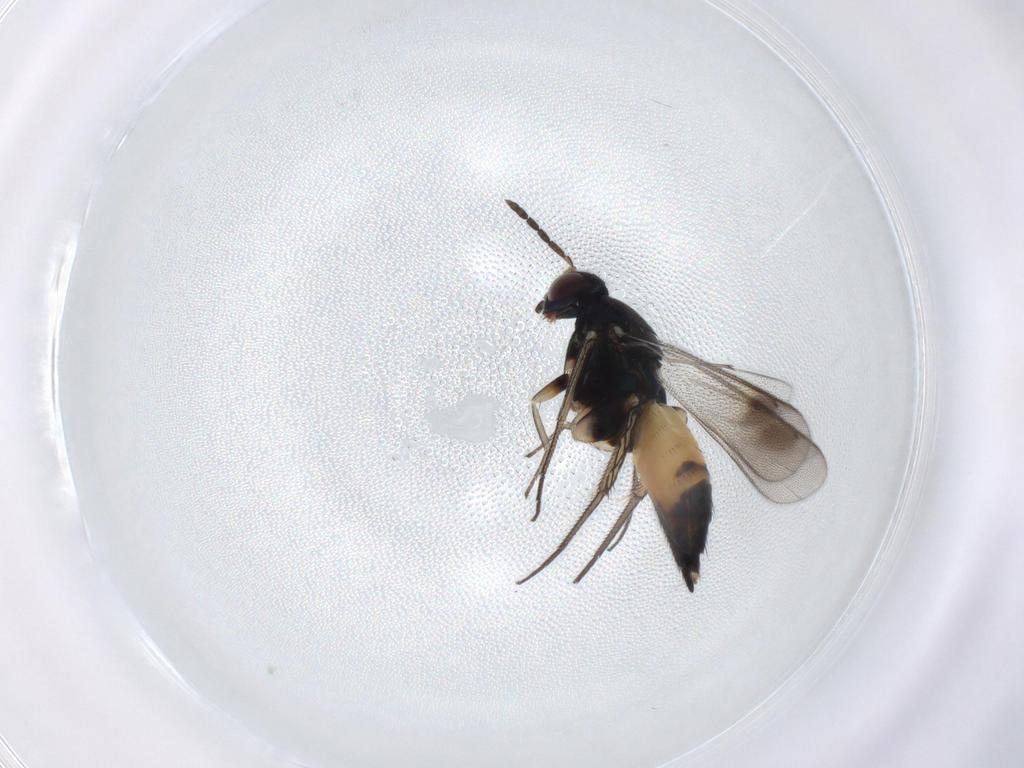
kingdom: Animalia
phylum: Arthropoda
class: Insecta
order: Hymenoptera
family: Eulophidae
